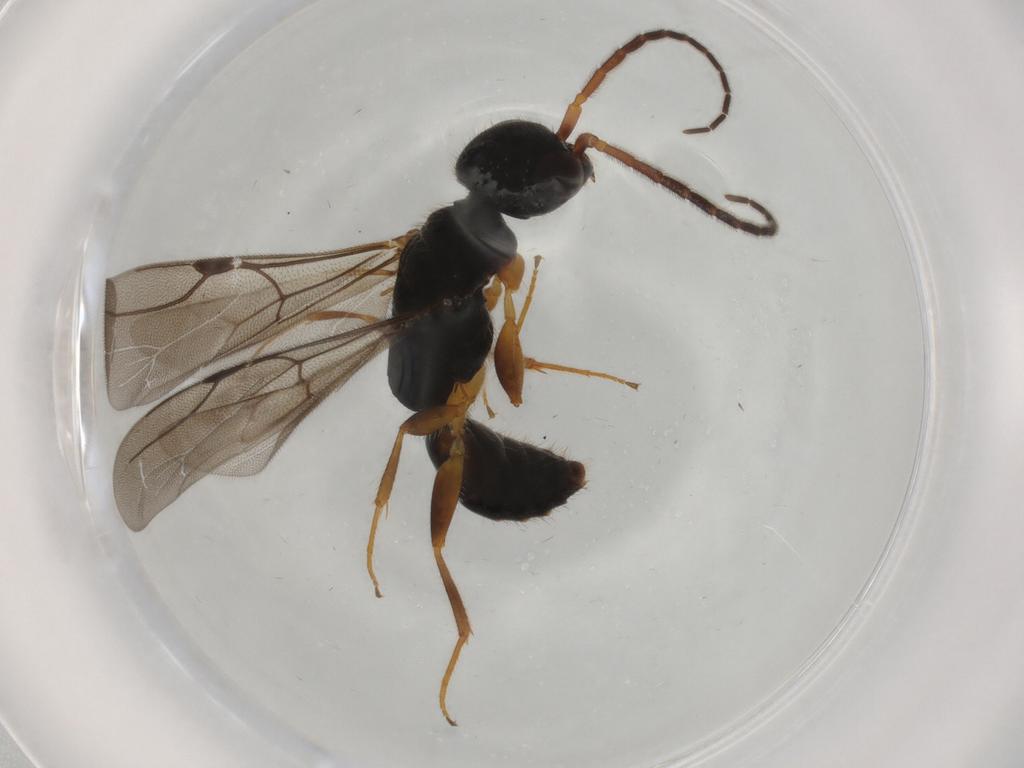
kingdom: Animalia
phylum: Arthropoda
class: Insecta
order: Hymenoptera
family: Bethylidae
